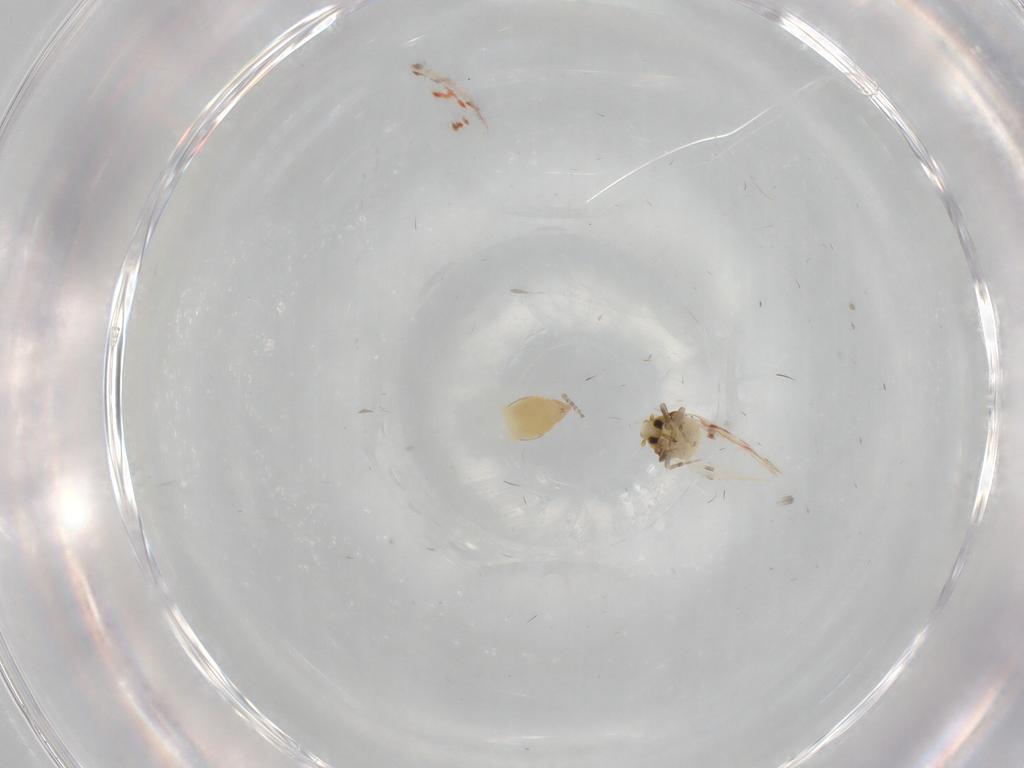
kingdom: Animalia
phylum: Arthropoda
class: Insecta
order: Hemiptera
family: Aleyrodidae
